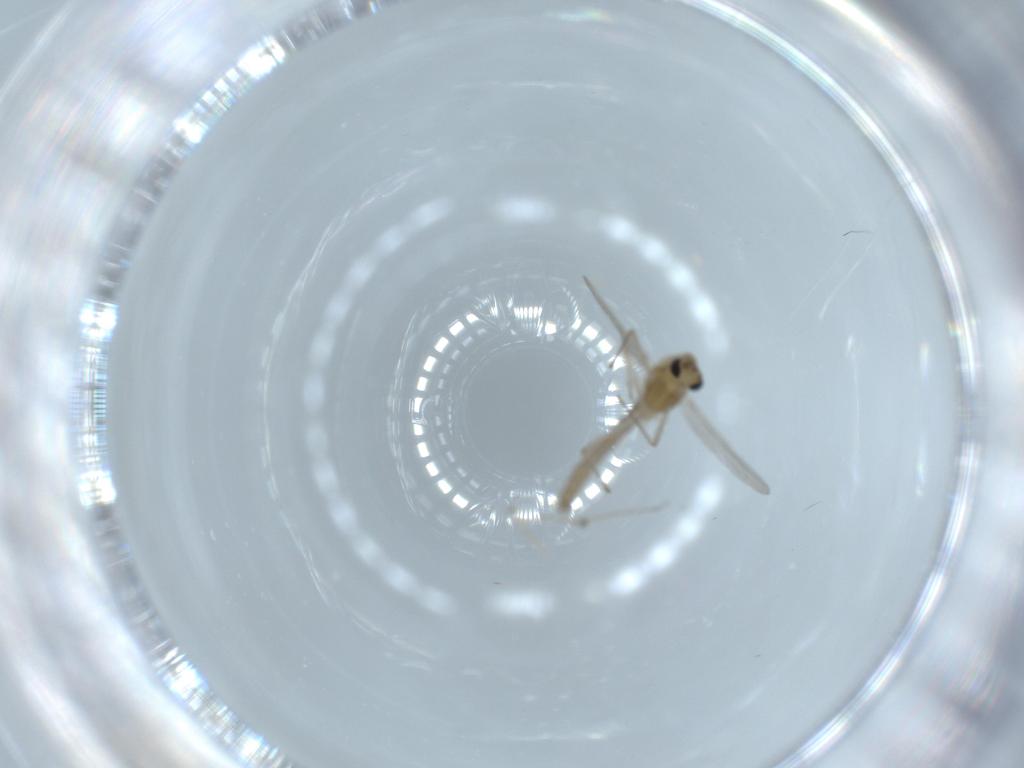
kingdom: Animalia
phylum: Arthropoda
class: Insecta
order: Diptera
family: Chironomidae
